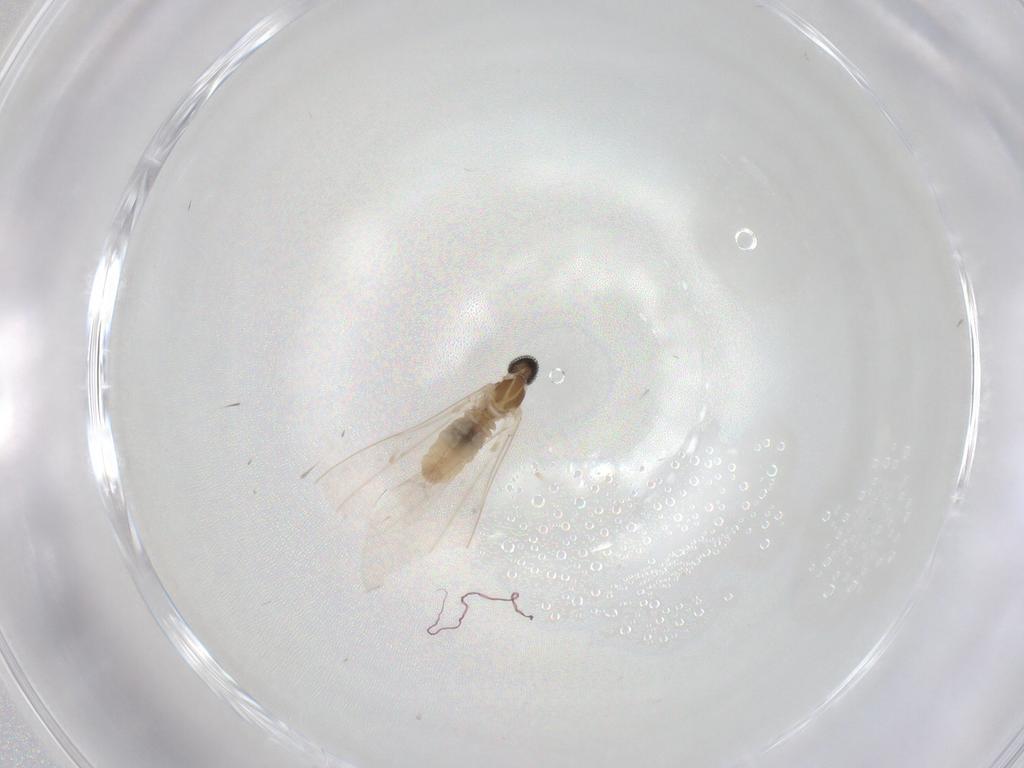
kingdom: Animalia
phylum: Arthropoda
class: Insecta
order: Diptera
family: Cecidomyiidae
